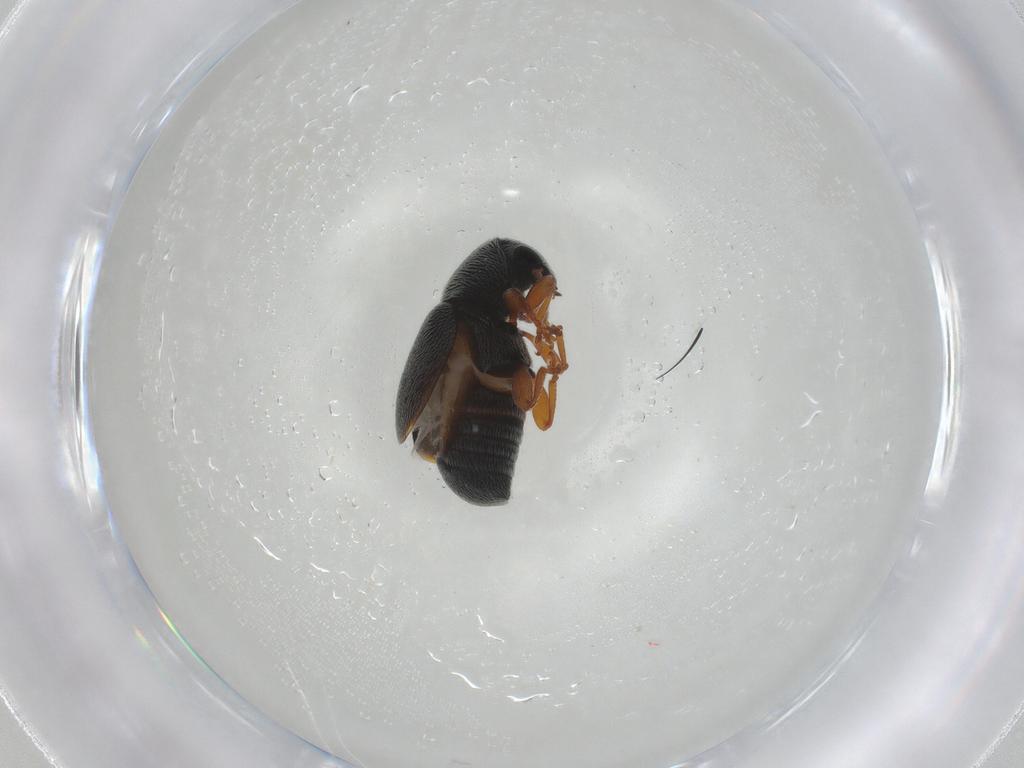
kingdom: Animalia
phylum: Arthropoda
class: Insecta
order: Coleoptera
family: Anthribidae
